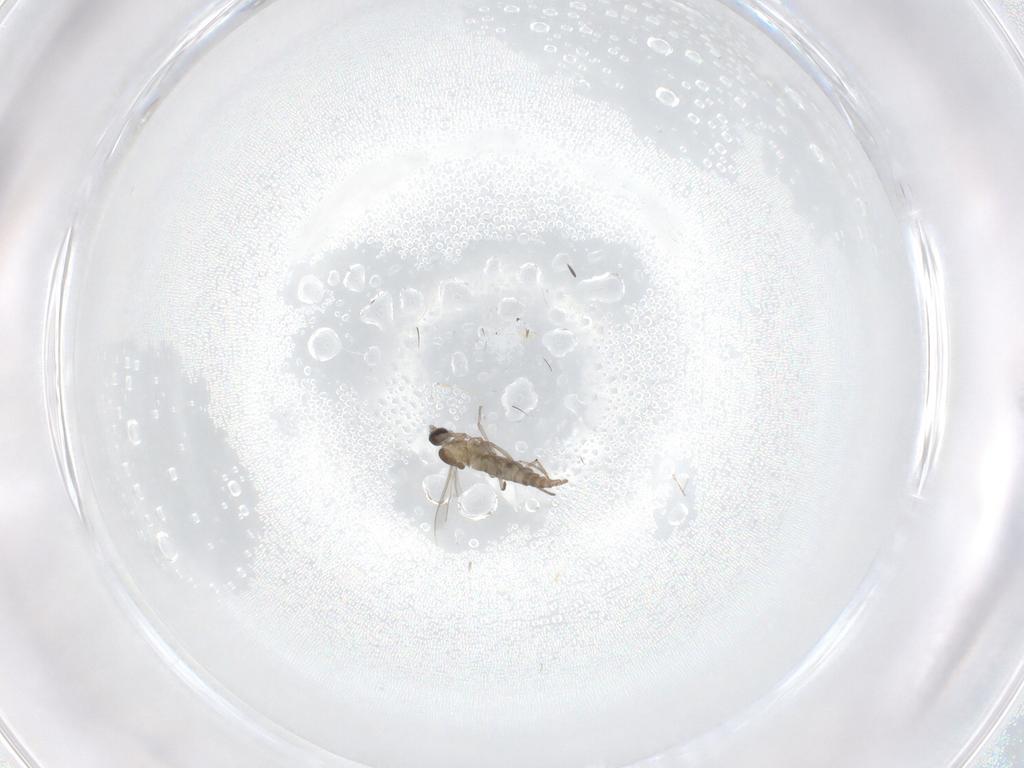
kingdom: Animalia
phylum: Arthropoda
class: Insecta
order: Diptera
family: Cecidomyiidae
